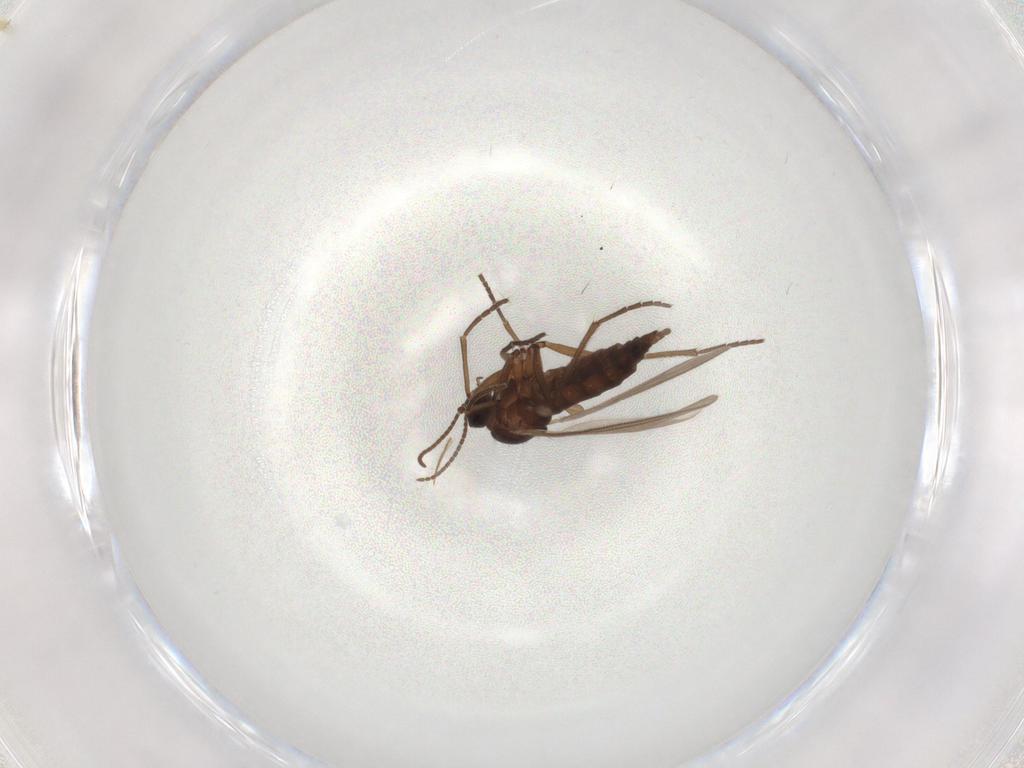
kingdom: Animalia
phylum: Arthropoda
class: Insecta
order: Diptera
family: Sciaridae
